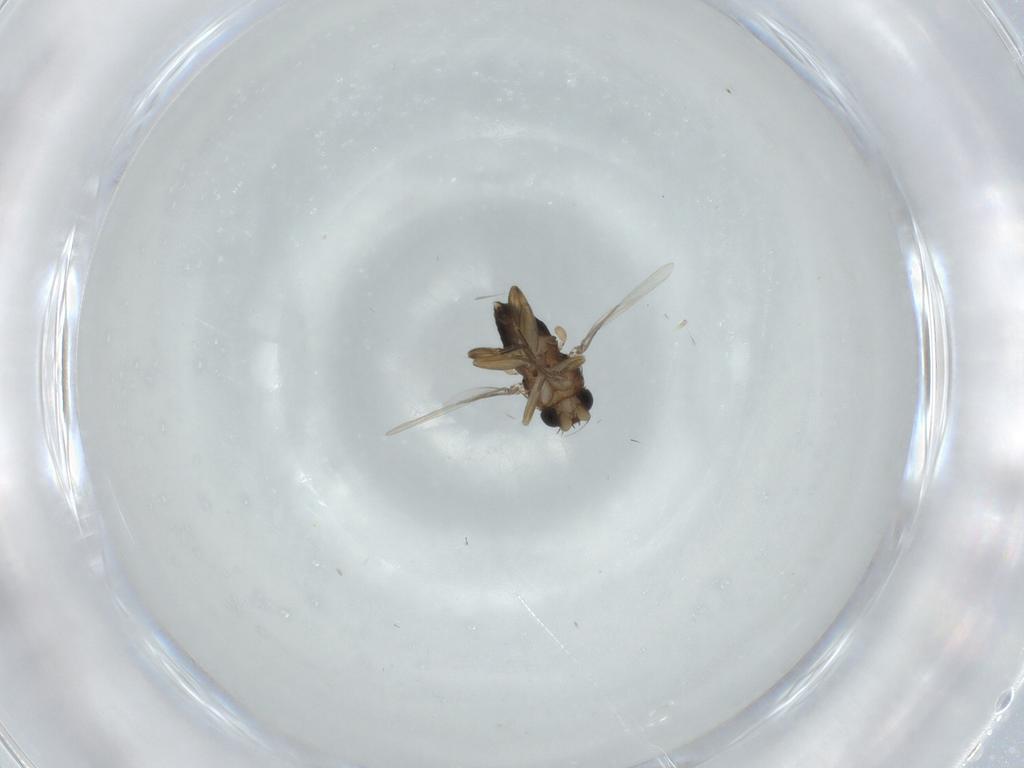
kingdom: Animalia
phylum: Arthropoda
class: Insecta
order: Diptera
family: Phoridae
